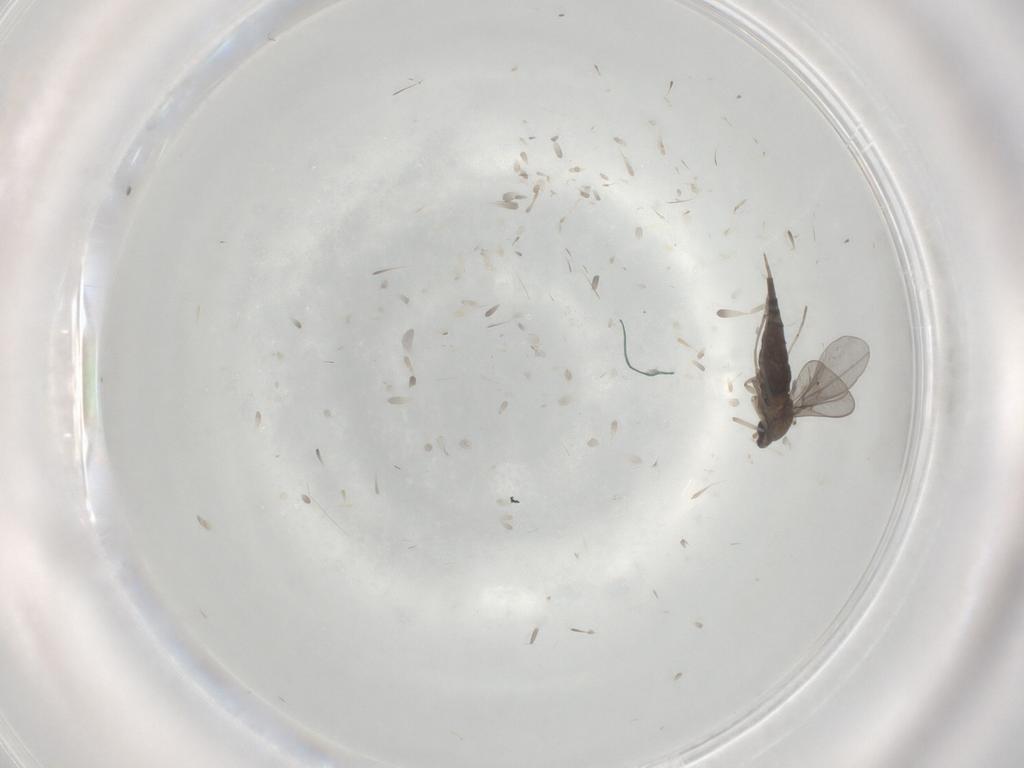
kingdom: Animalia
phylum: Arthropoda
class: Insecta
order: Diptera
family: Cecidomyiidae
